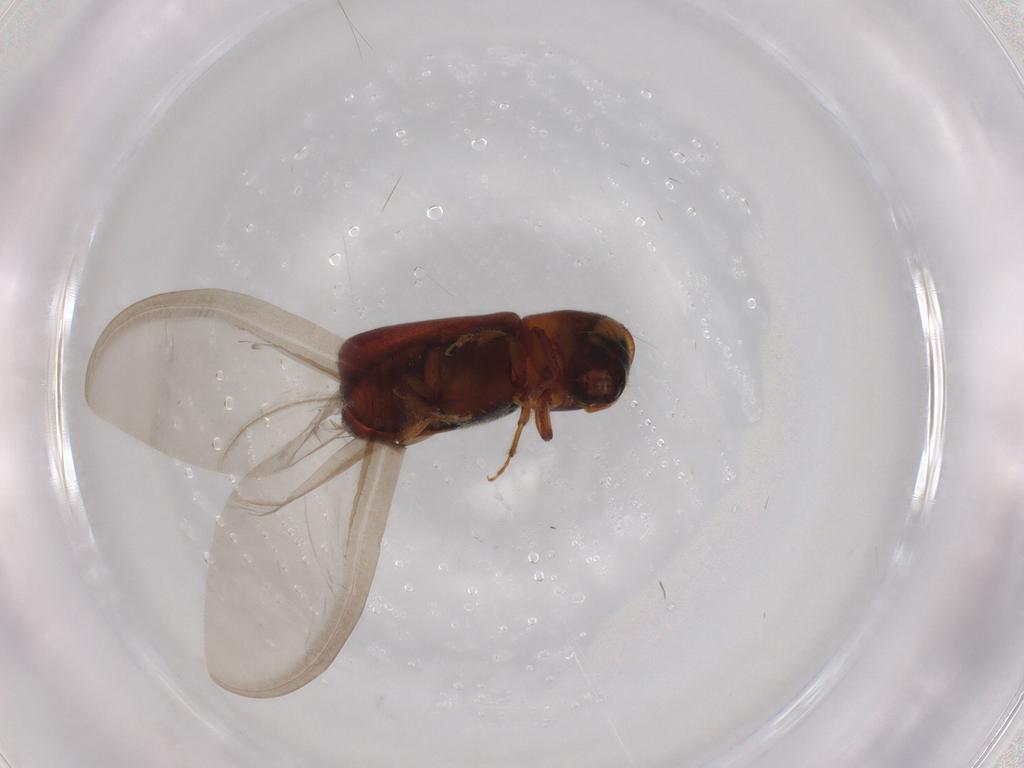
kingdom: Animalia
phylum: Arthropoda
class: Insecta
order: Coleoptera
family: Curculionidae
